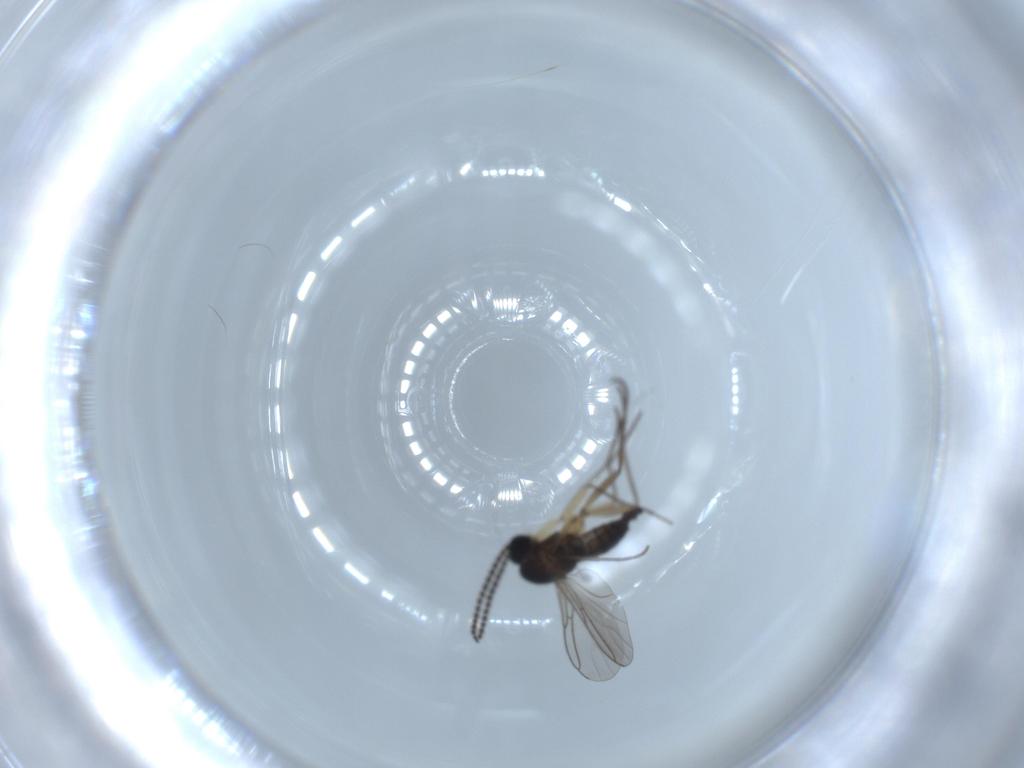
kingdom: Animalia
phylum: Arthropoda
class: Insecta
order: Diptera
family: Sciaridae
